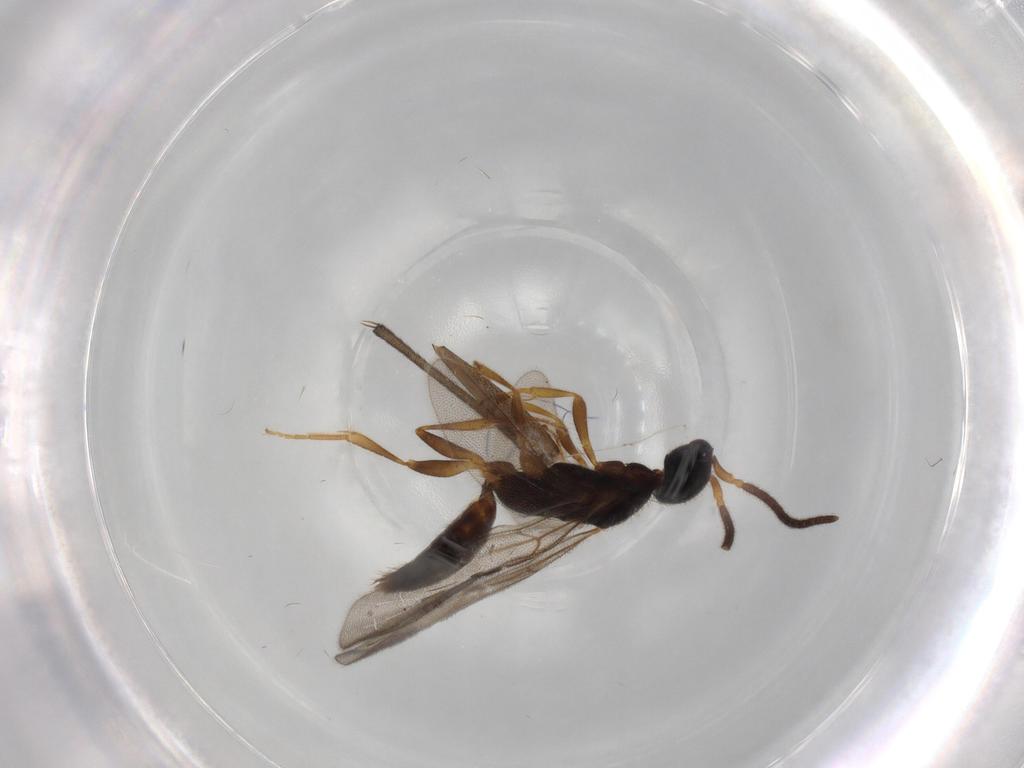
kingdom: Animalia
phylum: Arthropoda
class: Insecta
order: Hymenoptera
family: Bethylidae
